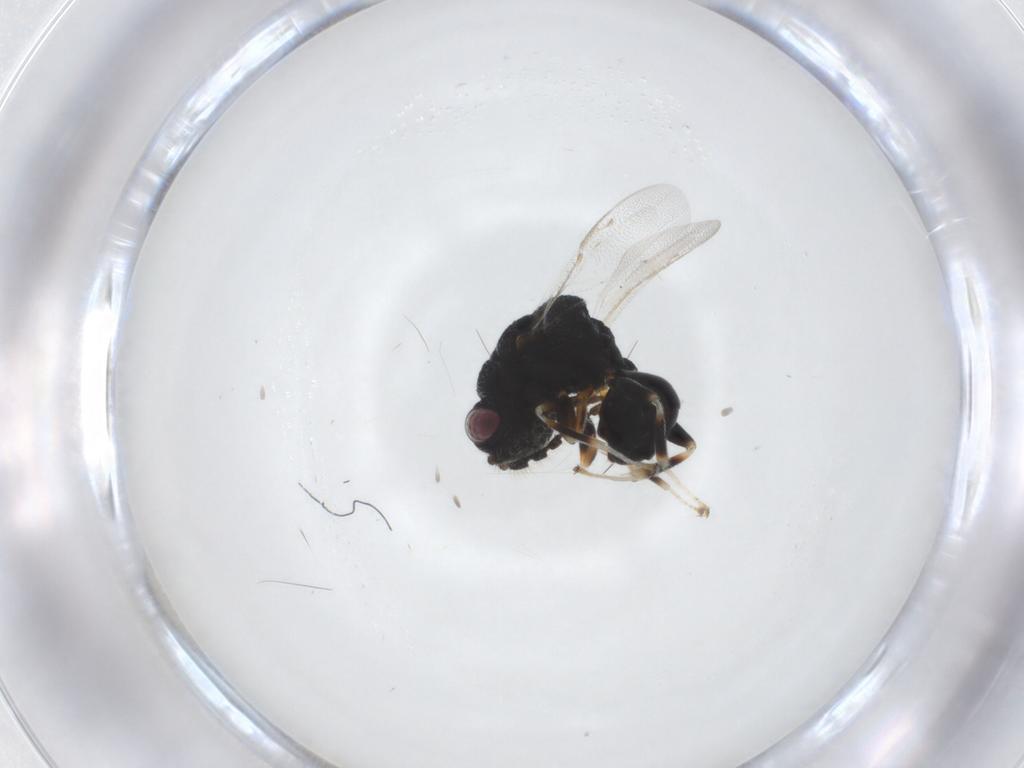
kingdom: Animalia
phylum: Arthropoda
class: Insecta
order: Hymenoptera
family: Eurytomidae
